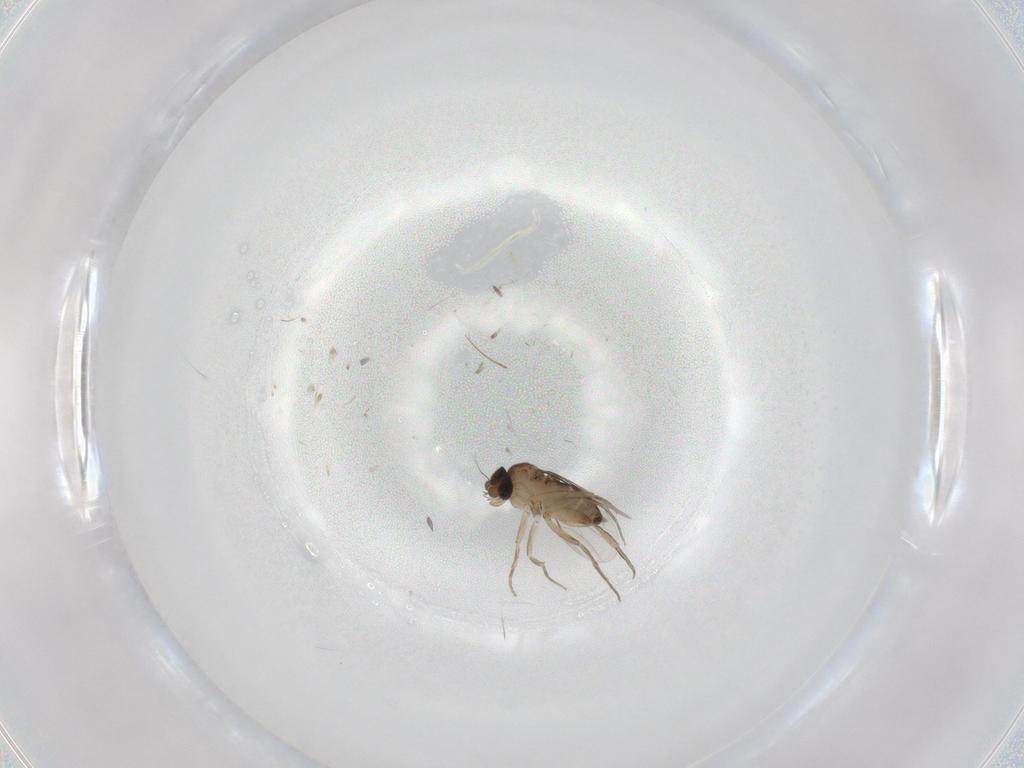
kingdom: Animalia
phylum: Arthropoda
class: Insecta
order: Diptera
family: Phoridae
